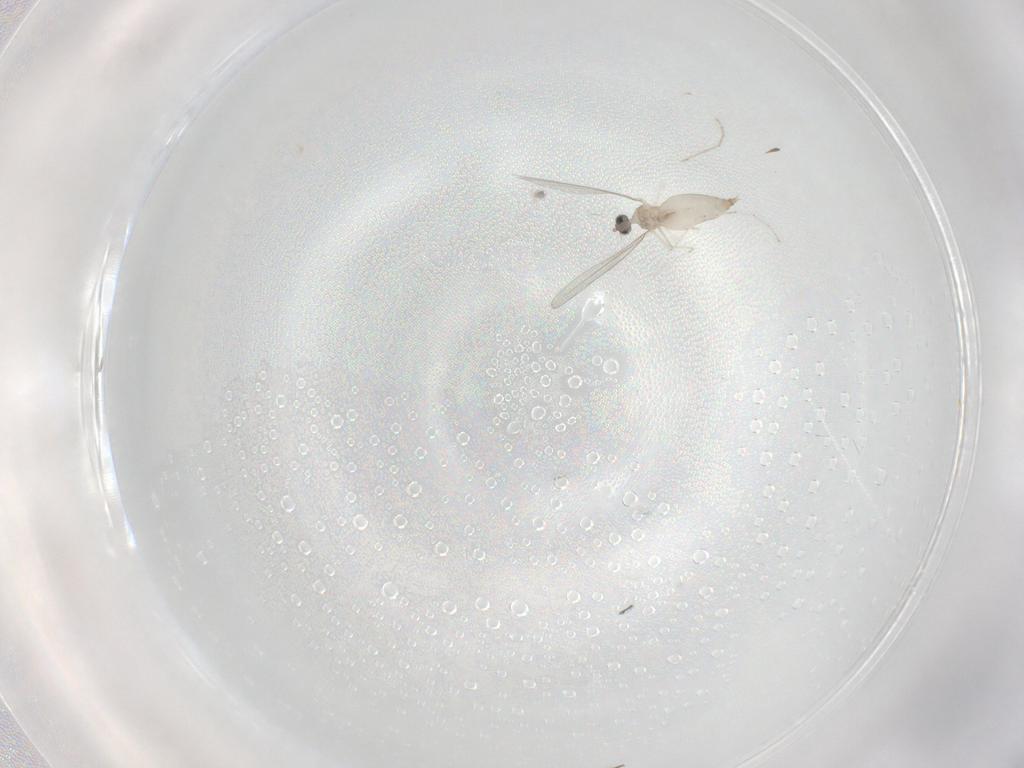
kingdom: Animalia
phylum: Arthropoda
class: Insecta
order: Diptera
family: Cecidomyiidae
